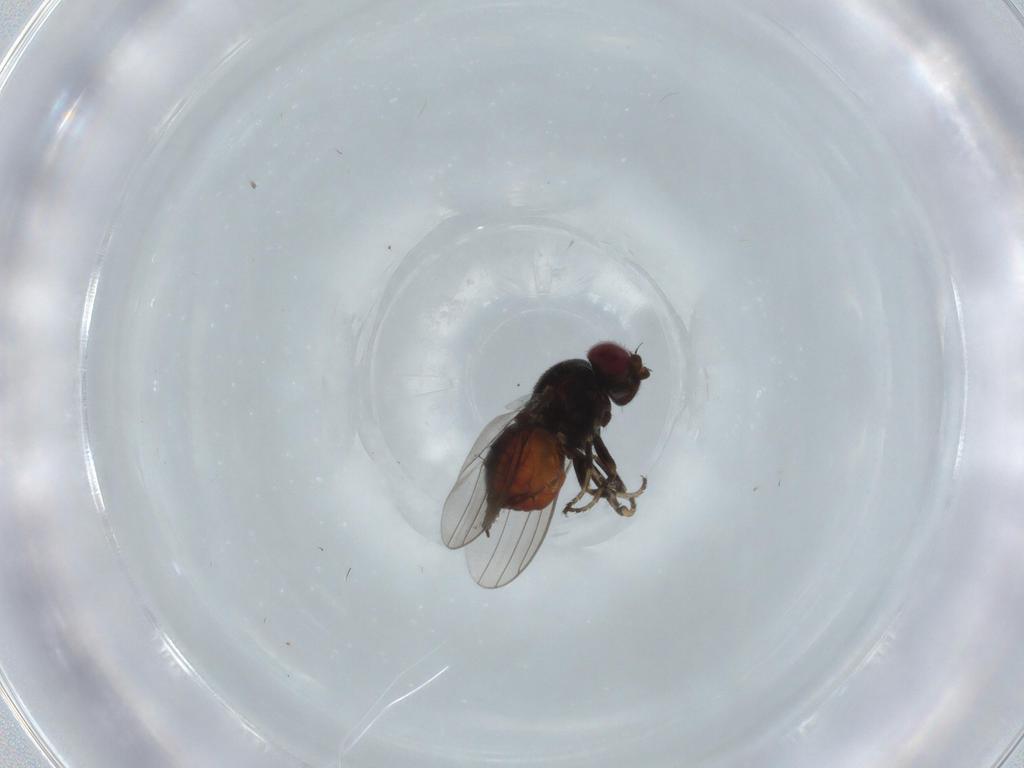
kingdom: Animalia
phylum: Arthropoda
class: Insecta
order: Diptera
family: Chloropidae
